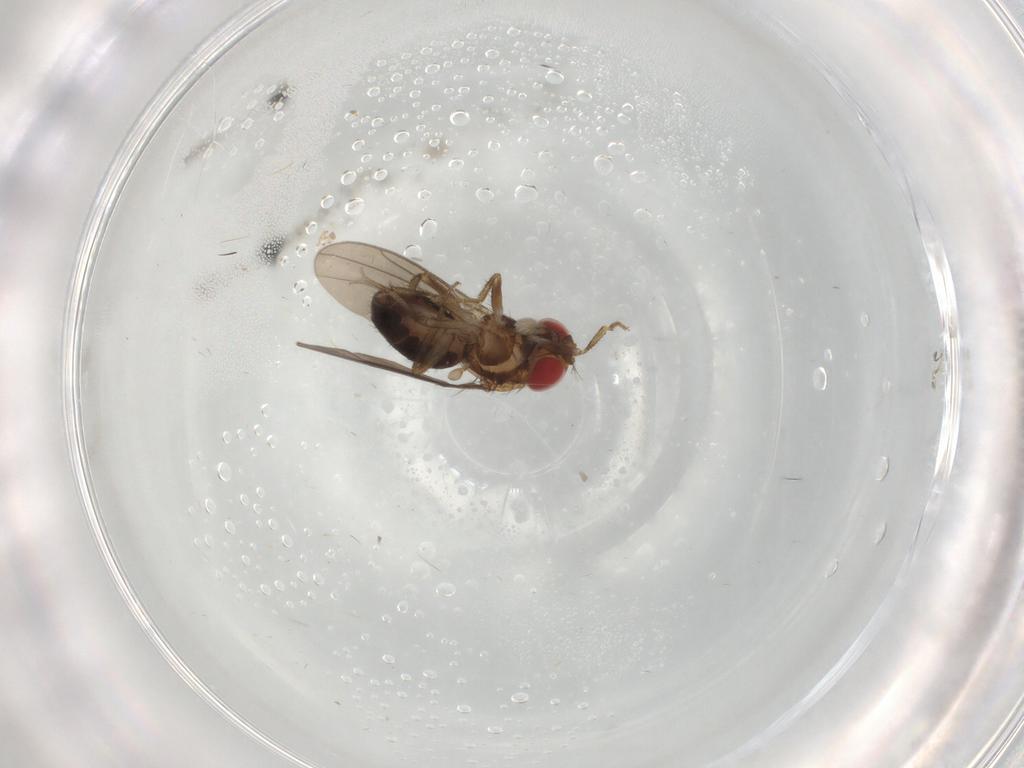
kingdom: Animalia
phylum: Arthropoda
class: Insecta
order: Diptera
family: Drosophilidae
